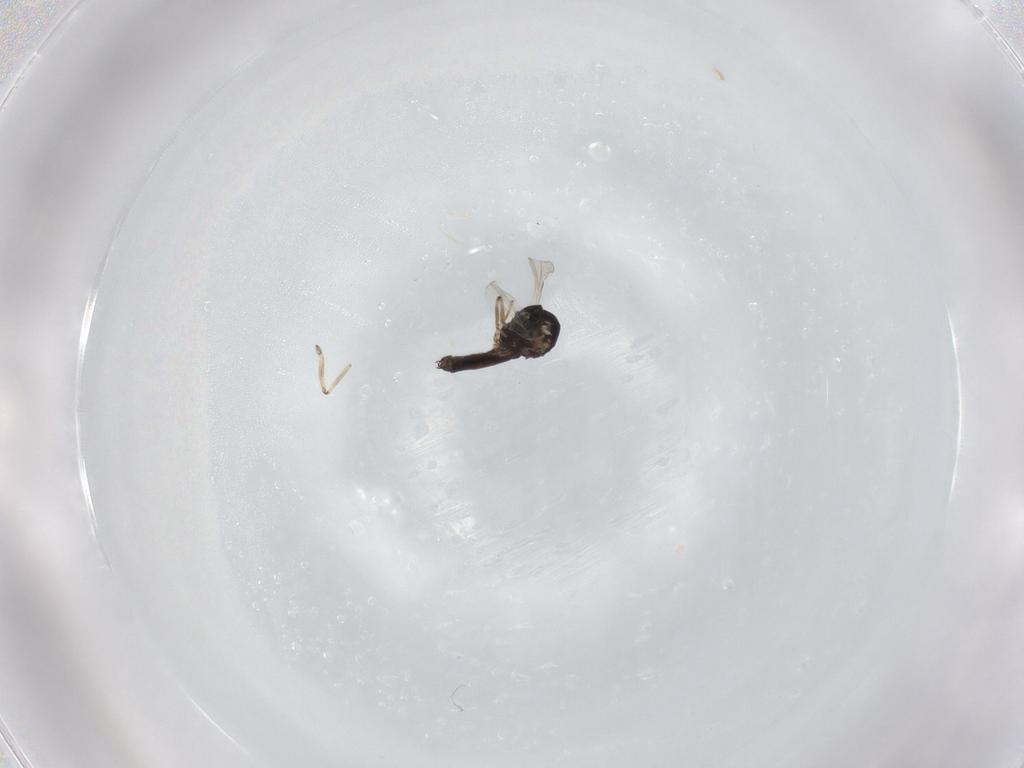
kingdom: Animalia
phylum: Arthropoda
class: Insecta
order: Diptera
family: Ceratopogonidae
